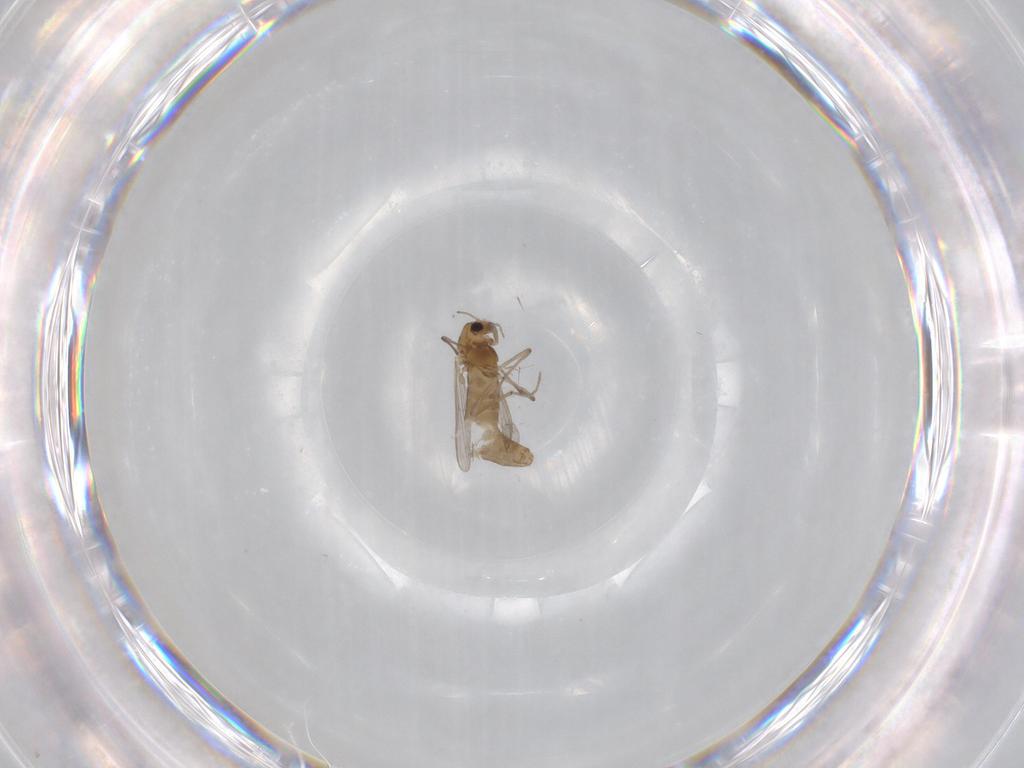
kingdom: Animalia
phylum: Arthropoda
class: Insecta
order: Diptera
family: Chironomidae
